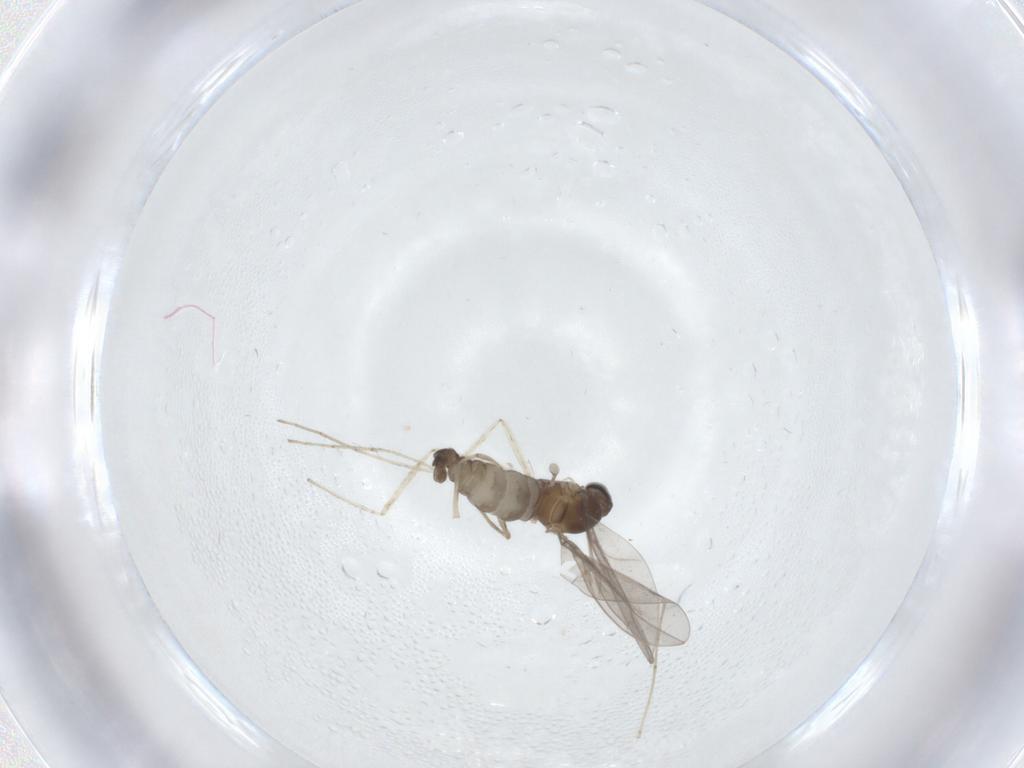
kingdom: Animalia
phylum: Arthropoda
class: Insecta
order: Diptera
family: Cecidomyiidae
